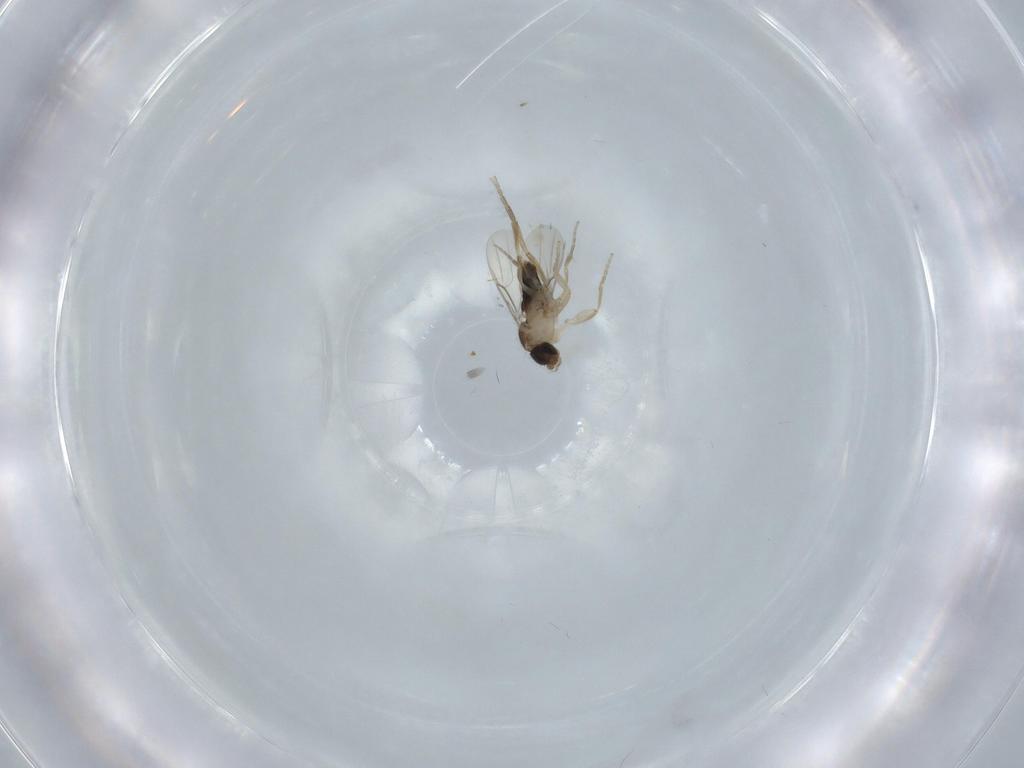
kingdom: Animalia
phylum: Arthropoda
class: Insecta
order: Diptera
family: Phoridae
